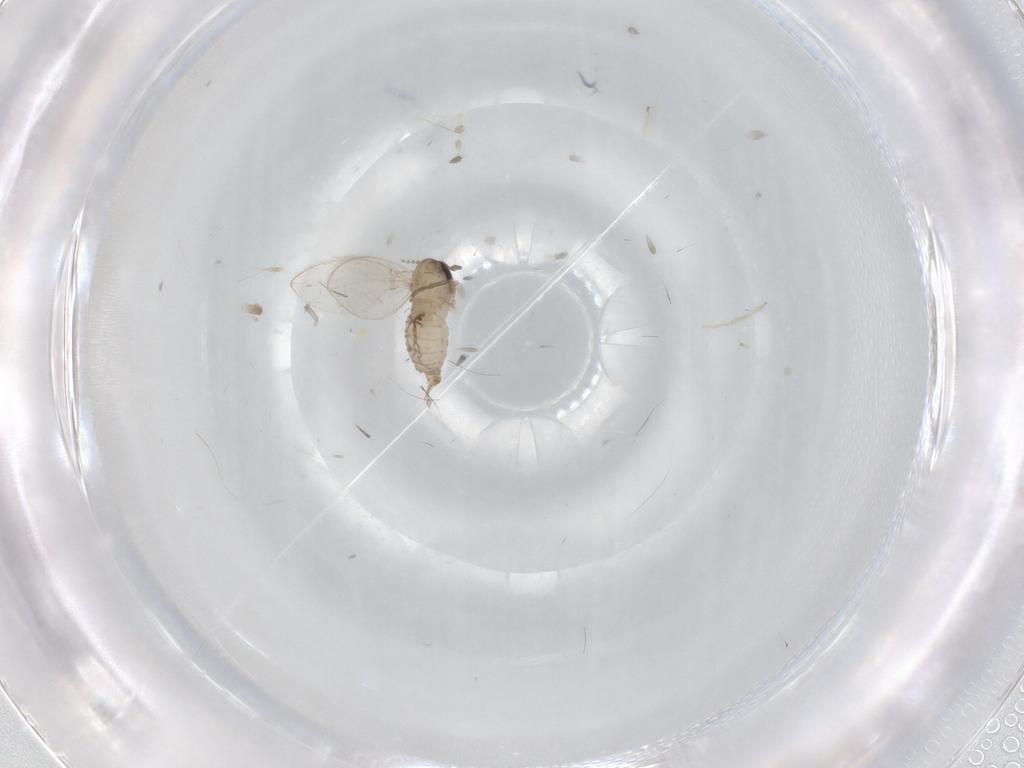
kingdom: Animalia
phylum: Arthropoda
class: Insecta
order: Diptera
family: Psychodidae
